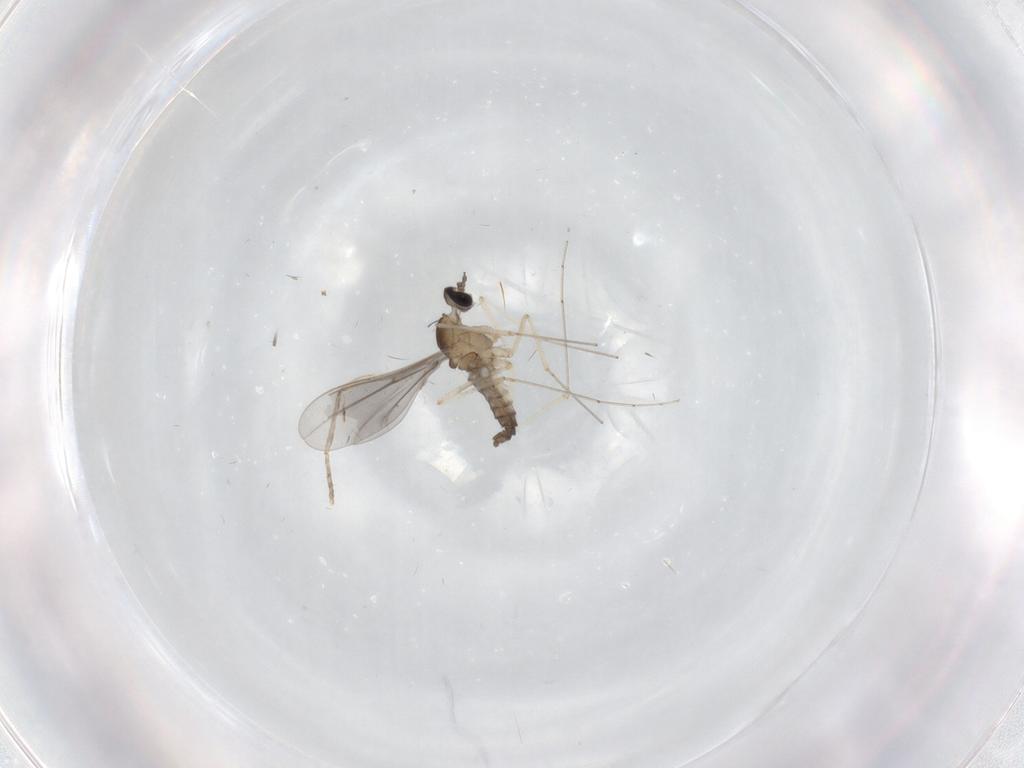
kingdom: Animalia
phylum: Arthropoda
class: Insecta
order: Diptera
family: Cecidomyiidae
